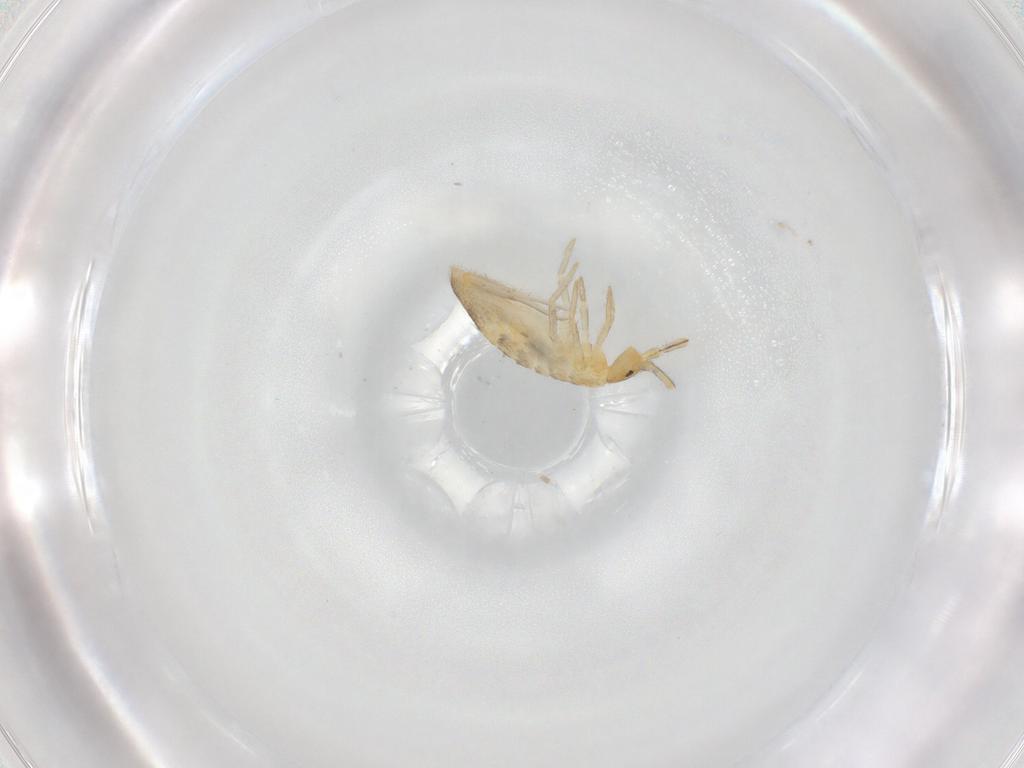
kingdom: Animalia
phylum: Arthropoda
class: Collembola
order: Entomobryomorpha
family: Entomobryidae
